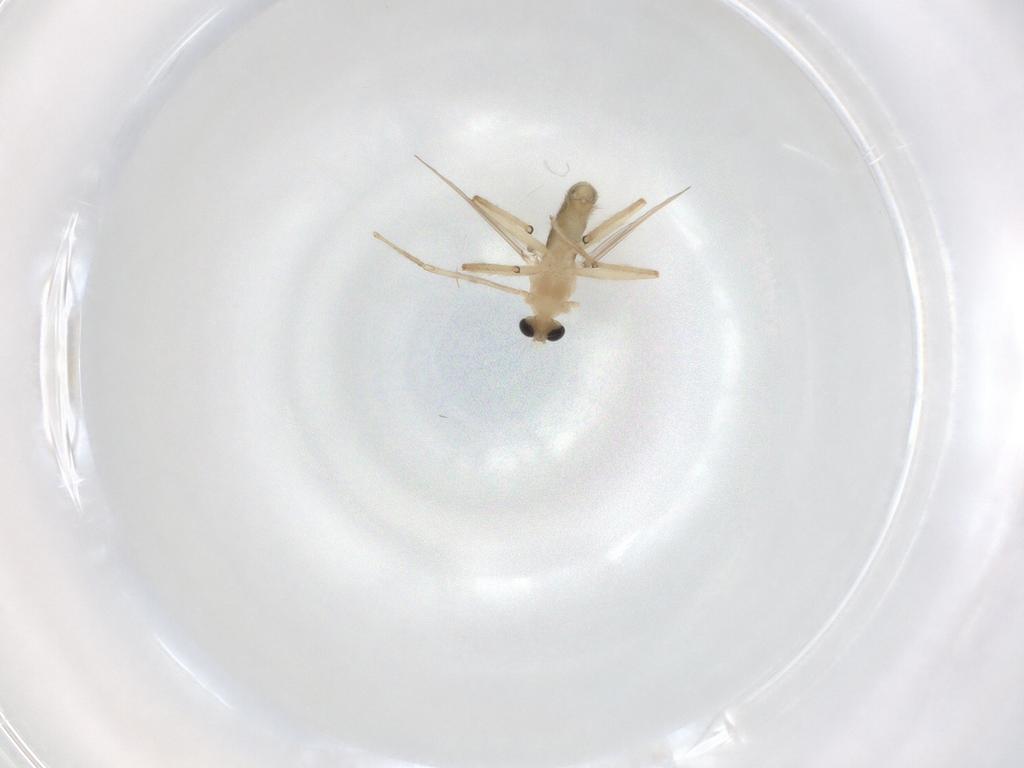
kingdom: Animalia
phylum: Arthropoda
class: Insecta
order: Diptera
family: Chironomidae
